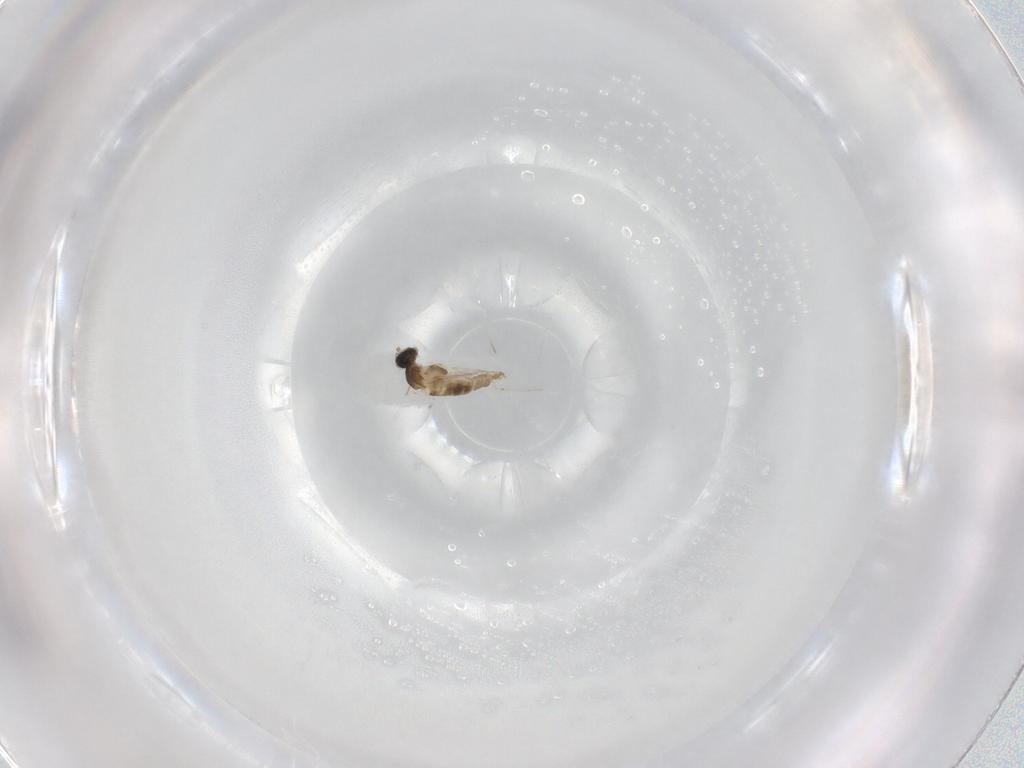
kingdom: Animalia
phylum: Arthropoda
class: Insecta
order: Diptera
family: Cecidomyiidae
